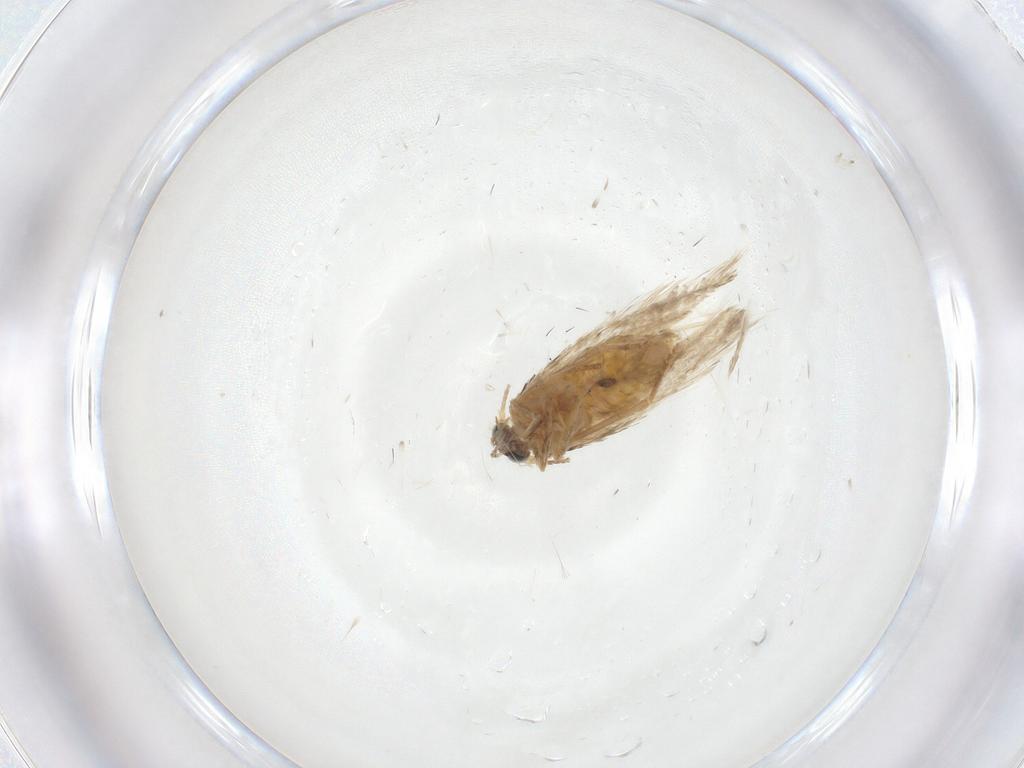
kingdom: Animalia
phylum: Arthropoda
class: Insecta
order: Lepidoptera
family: Nepticulidae
